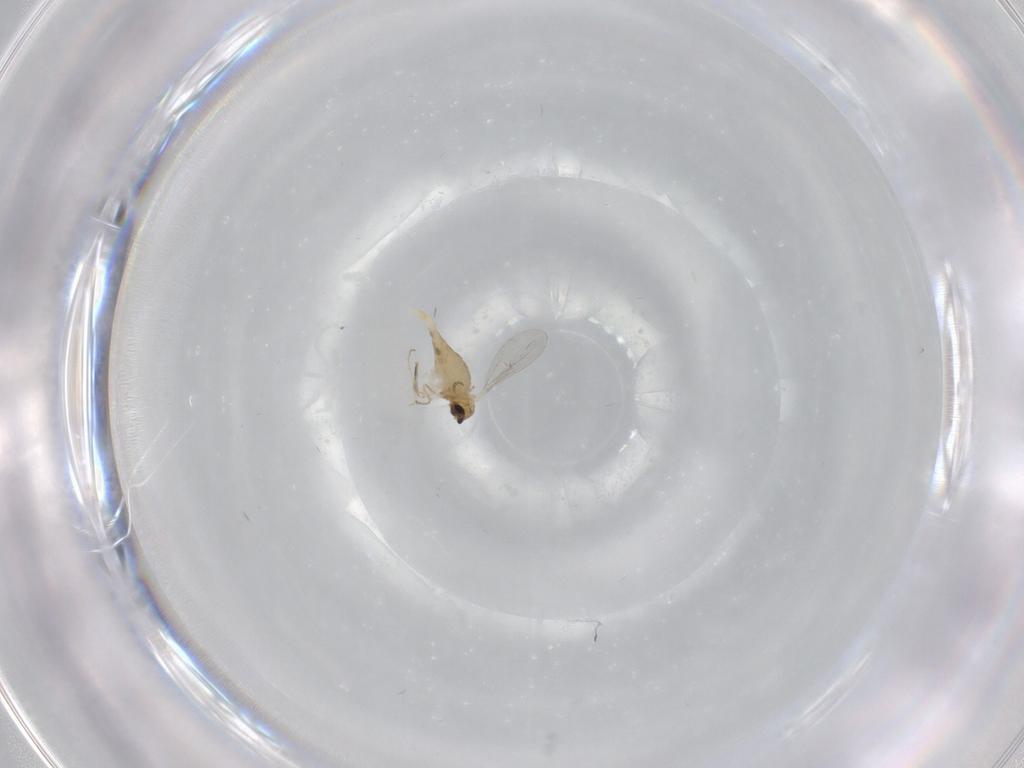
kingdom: Animalia
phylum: Arthropoda
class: Insecta
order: Diptera
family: Cecidomyiidae
